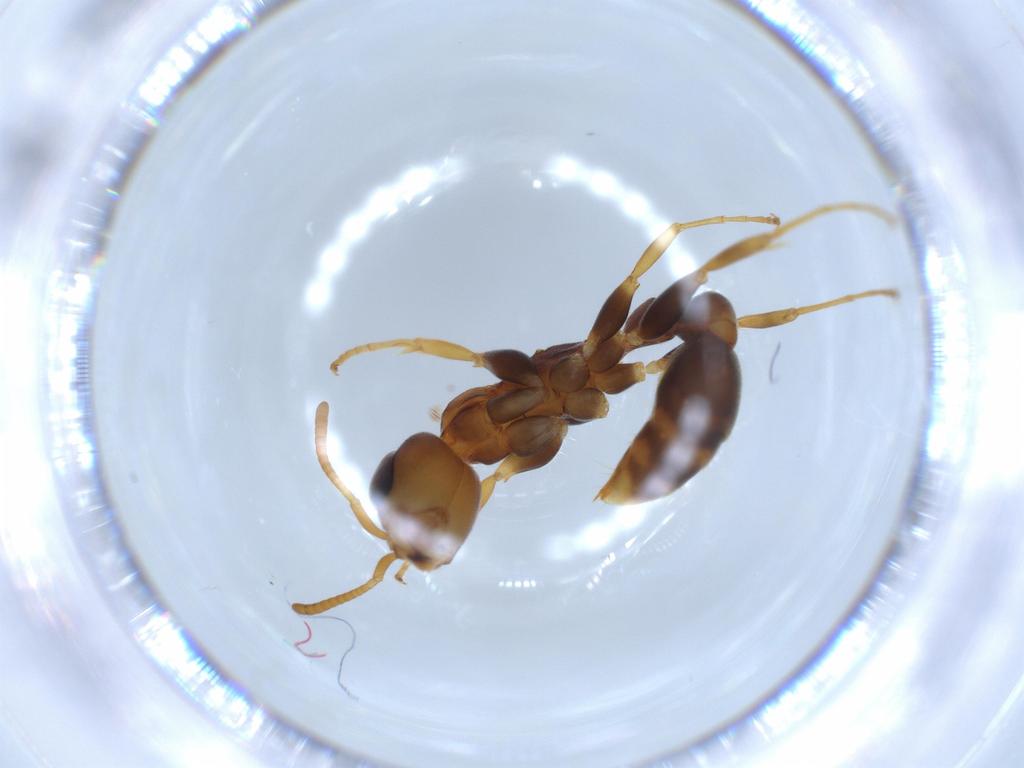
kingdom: Animalia
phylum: Arthropoda
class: Insecta
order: Hymenoptera
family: Formicidae
